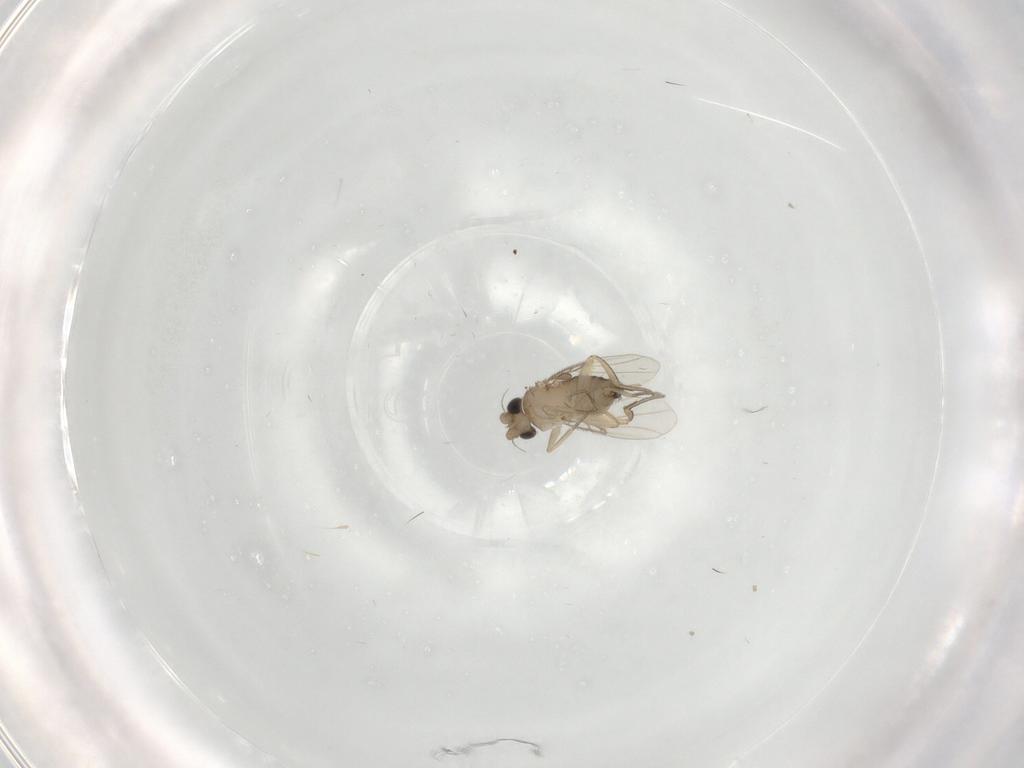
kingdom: Animalia
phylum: Arthropoda
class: Insecta
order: Diptera
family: Phoridae
